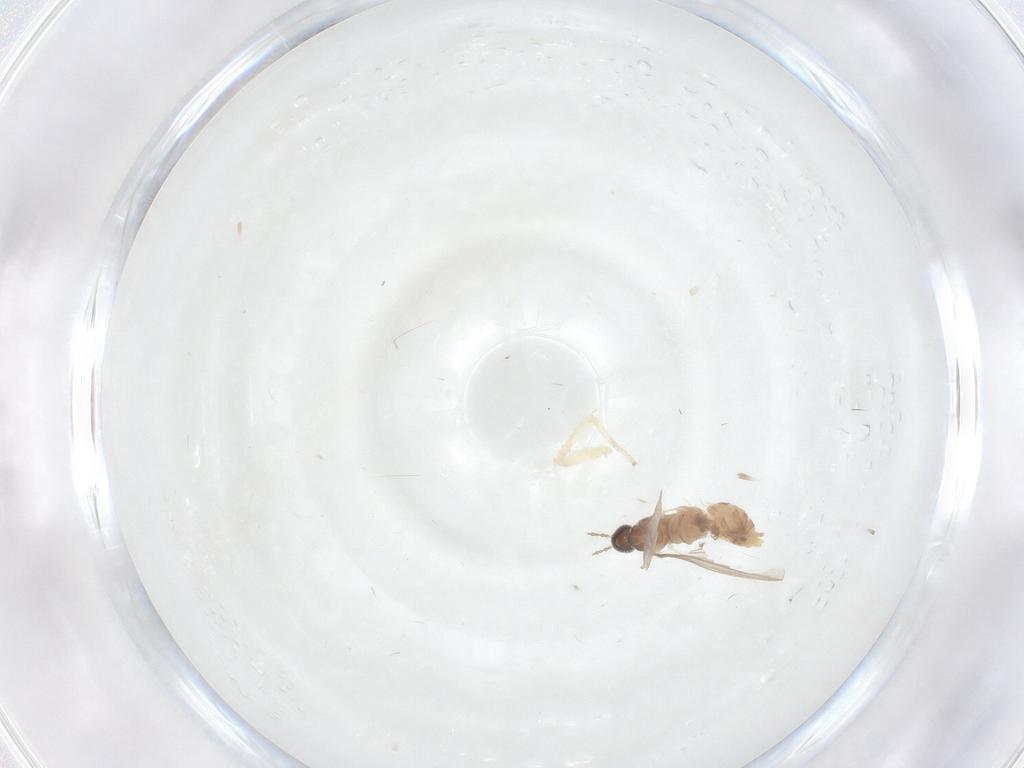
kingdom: Animalia
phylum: Arthropoda
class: Insecta
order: Diptera
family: Cecidomyiidae
